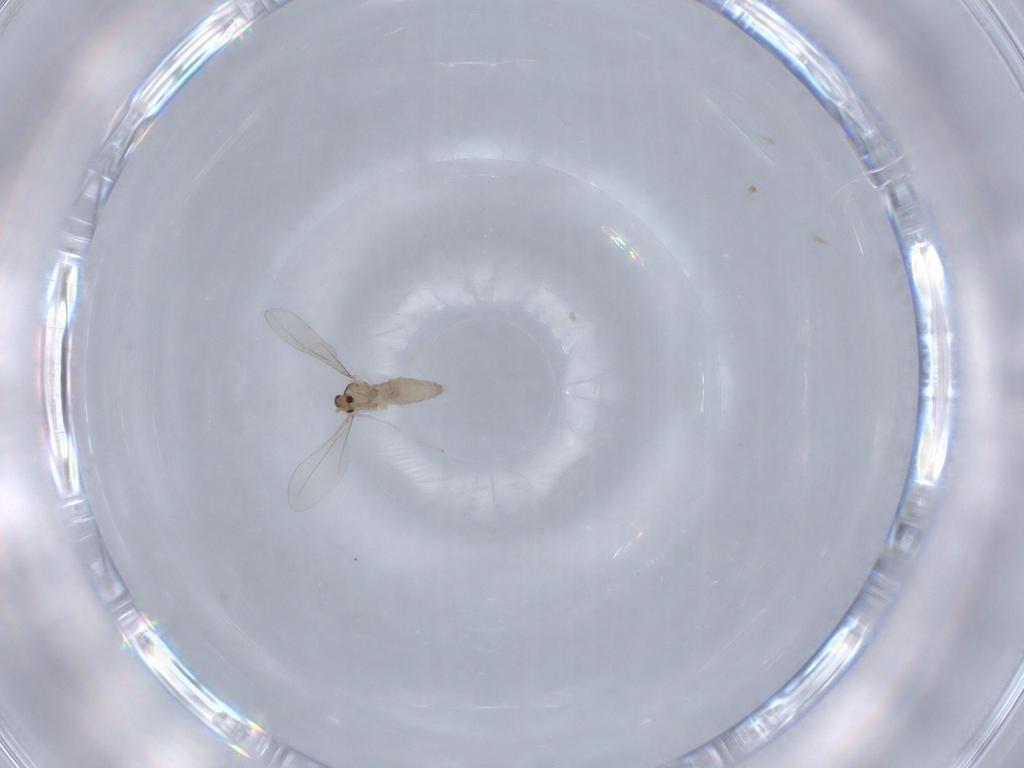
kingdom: Animalia
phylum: Arthropoda
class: Insecta
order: Diptera
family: Cecidomyiidae
